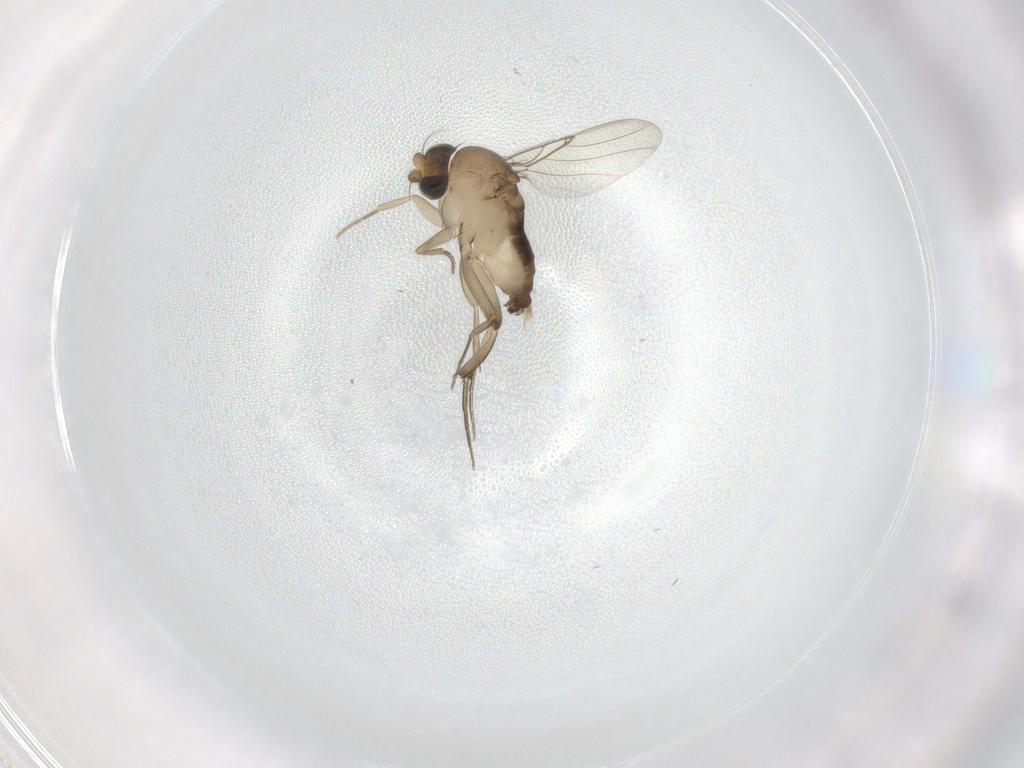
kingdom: Animalia
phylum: Arthropoda
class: Insecta
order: Diptera
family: Phoridae
